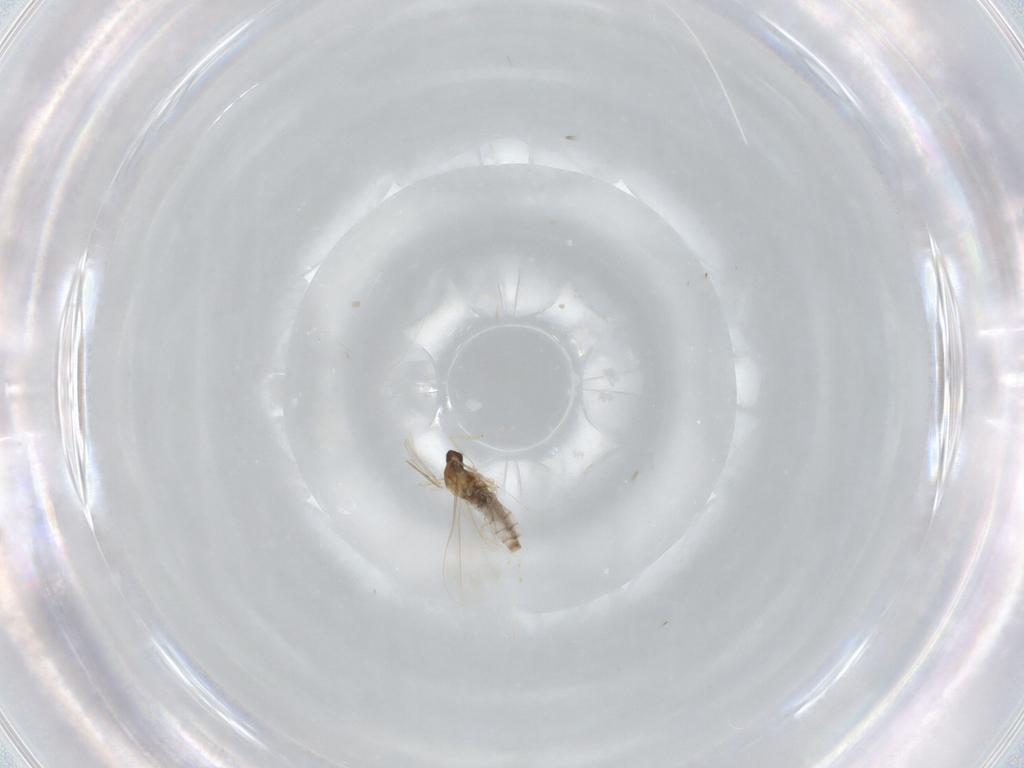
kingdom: Animalia
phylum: Arthropoda
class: Insecta
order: Diptera
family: Cecidomyiidae
